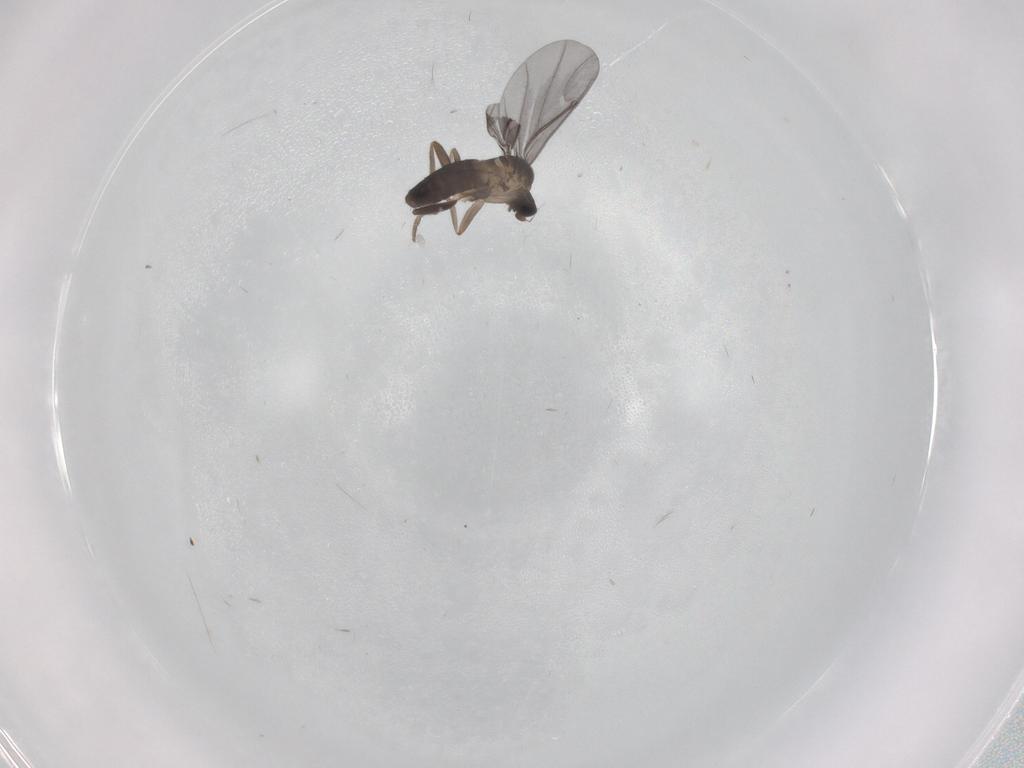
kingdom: Animalia
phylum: Arthropoda
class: Insecta
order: Diptera
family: Phoridae
